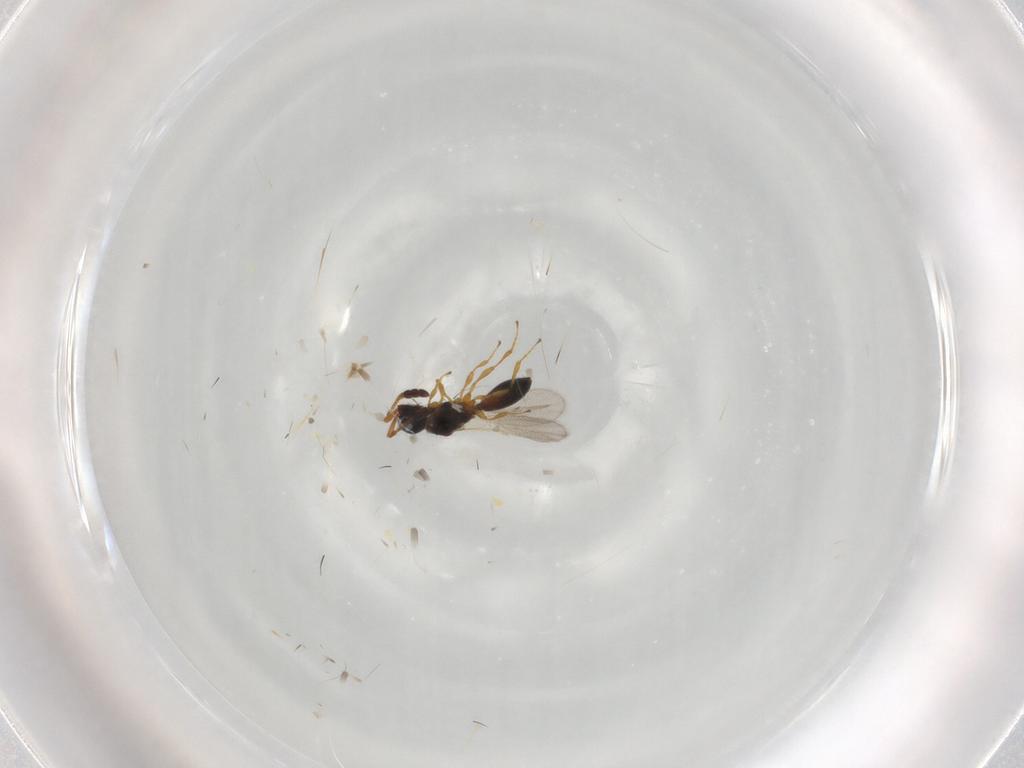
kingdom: Animalia
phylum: Arthropoda
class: Insecta
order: Hymenoptera
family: Diapriidae
